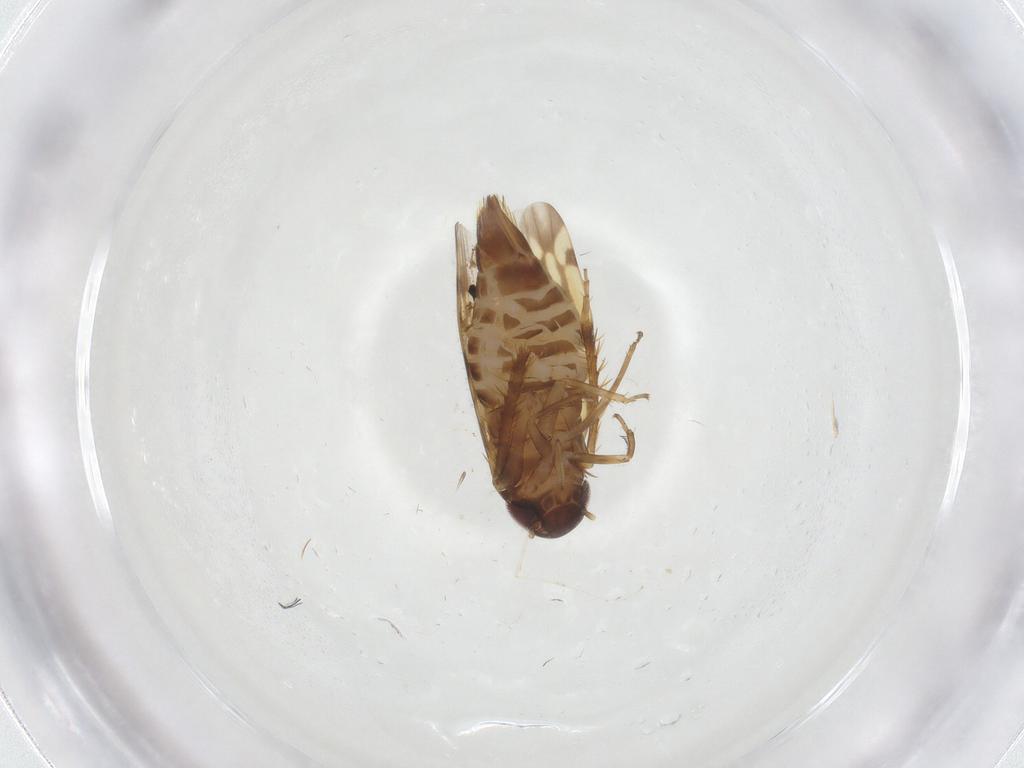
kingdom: Animalia
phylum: Arthropoda
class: Insecta
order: Hemiptera
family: Cicadellidae
